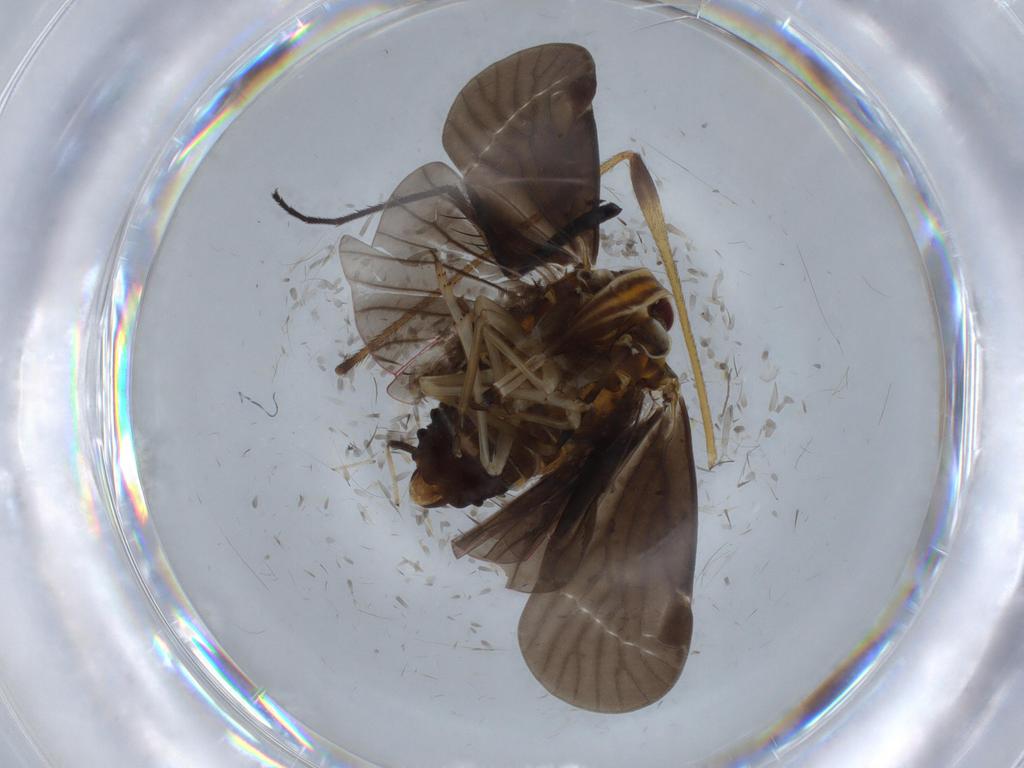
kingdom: Animalia
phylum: Arthropoda
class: Insecta
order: Hemiptera
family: Derbidae
